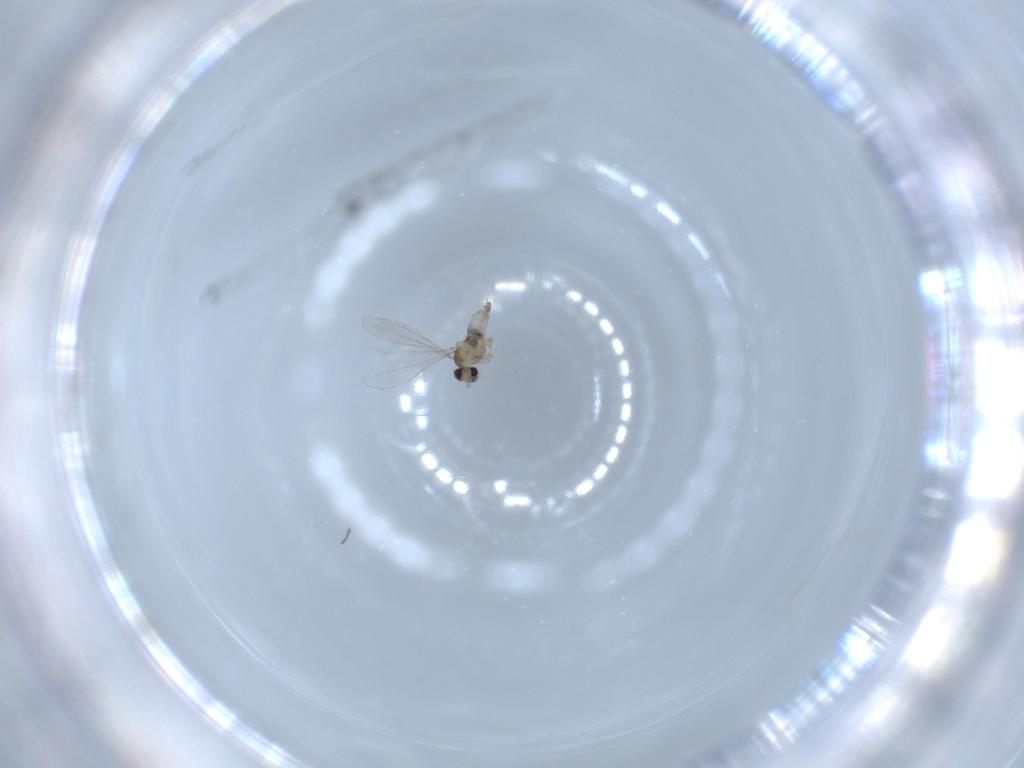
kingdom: Animalia
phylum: Arthropoda
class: Insecta
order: Diptera
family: Cecidomyiidae
